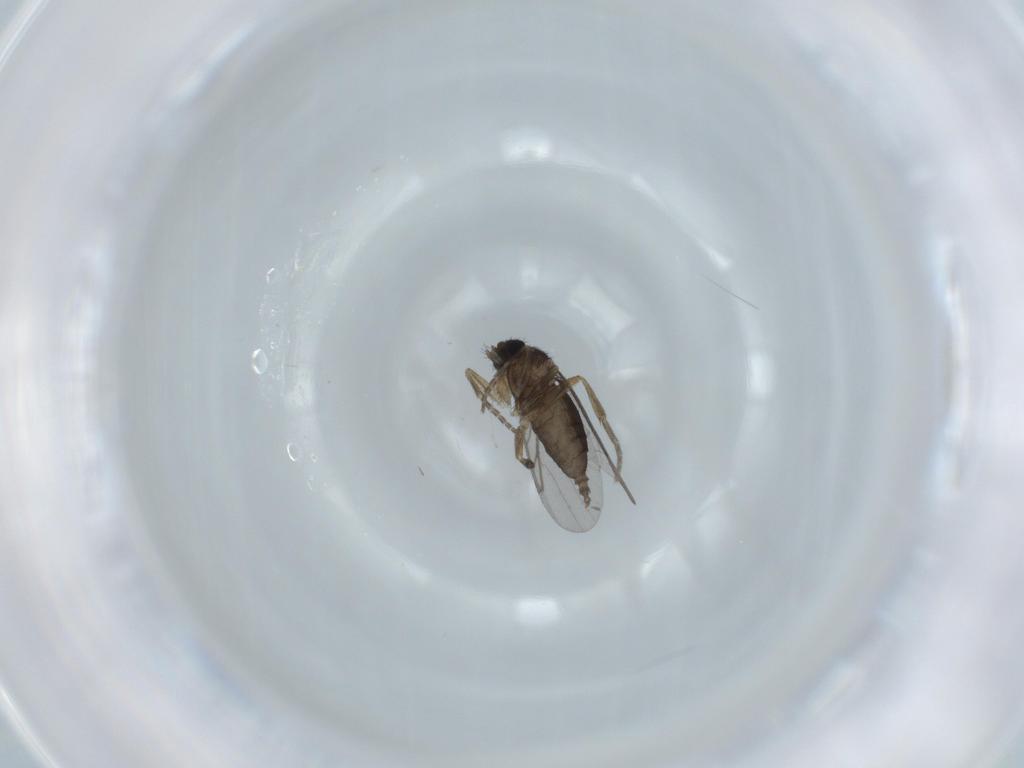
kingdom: Animalia
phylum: Arthropoda
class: Insecta
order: Diptera
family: Phoridae
